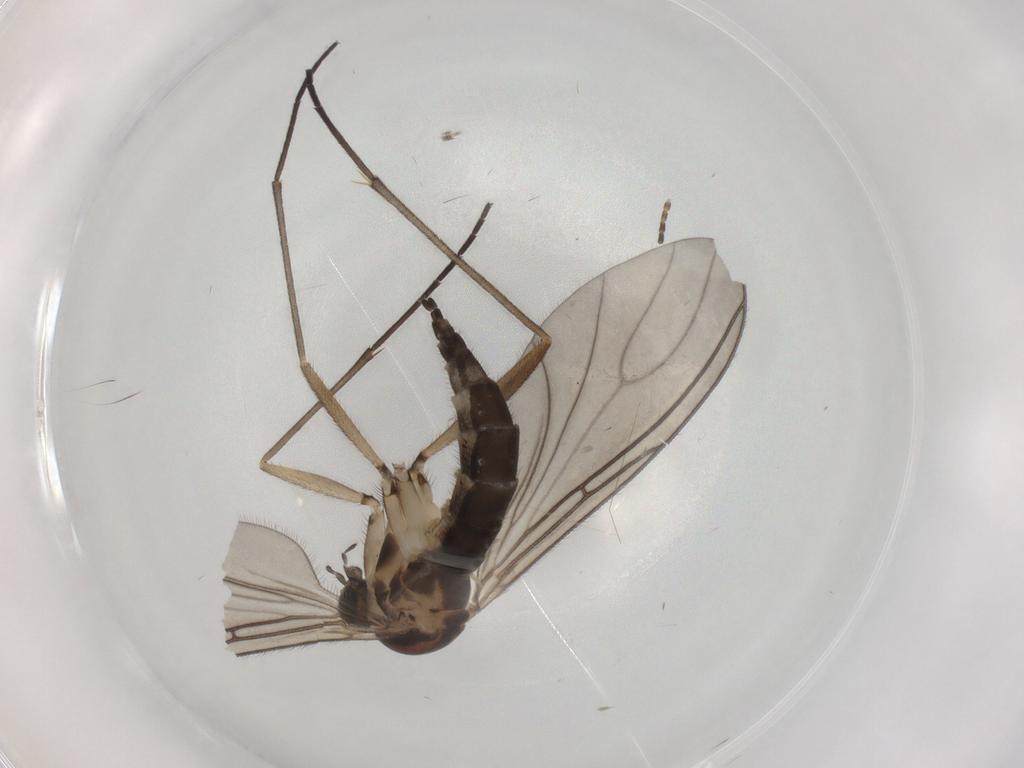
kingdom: Animalia
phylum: Arthropoda
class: Insecta
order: Diptera
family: Sciaridae
